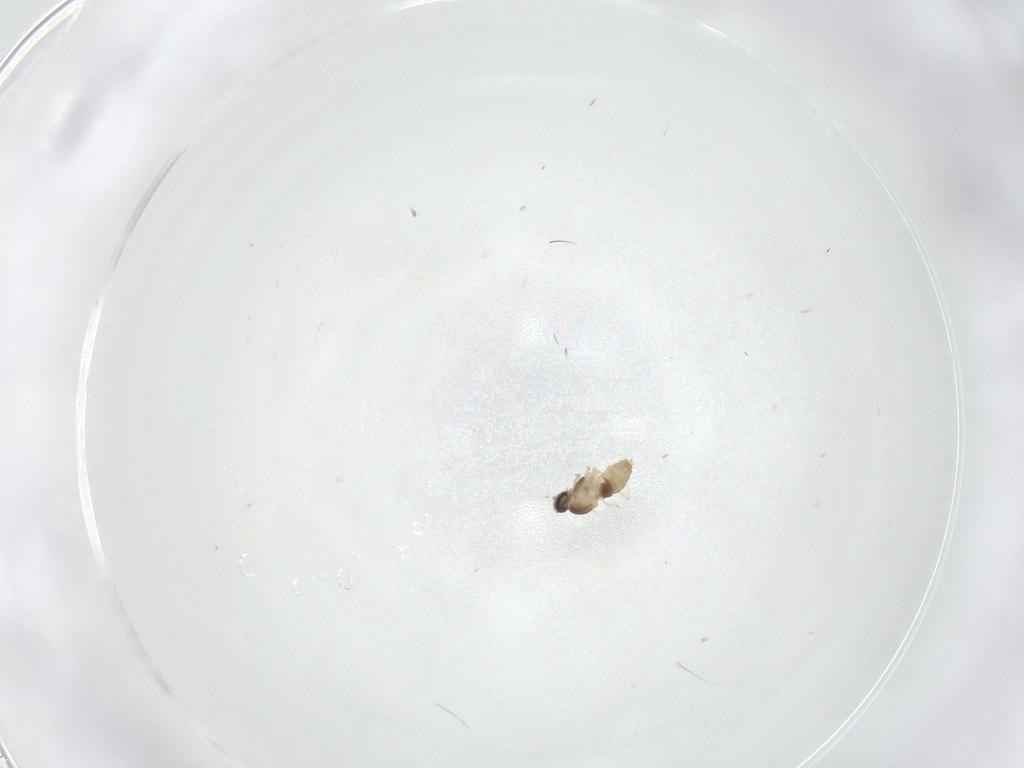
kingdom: Animalia
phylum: Arthropoda
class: Insecta
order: Diptera
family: Cecidomyiidae
